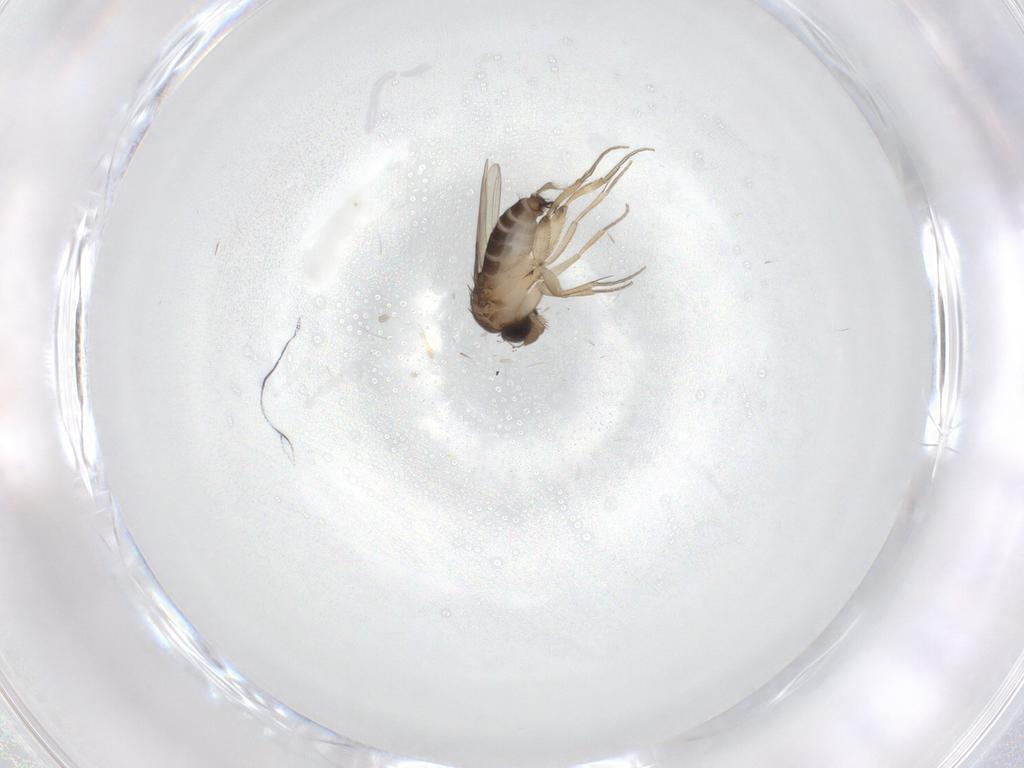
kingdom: Animalia
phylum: Arthropoda
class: Insecta
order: Diptera
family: Cecidomyiidae
